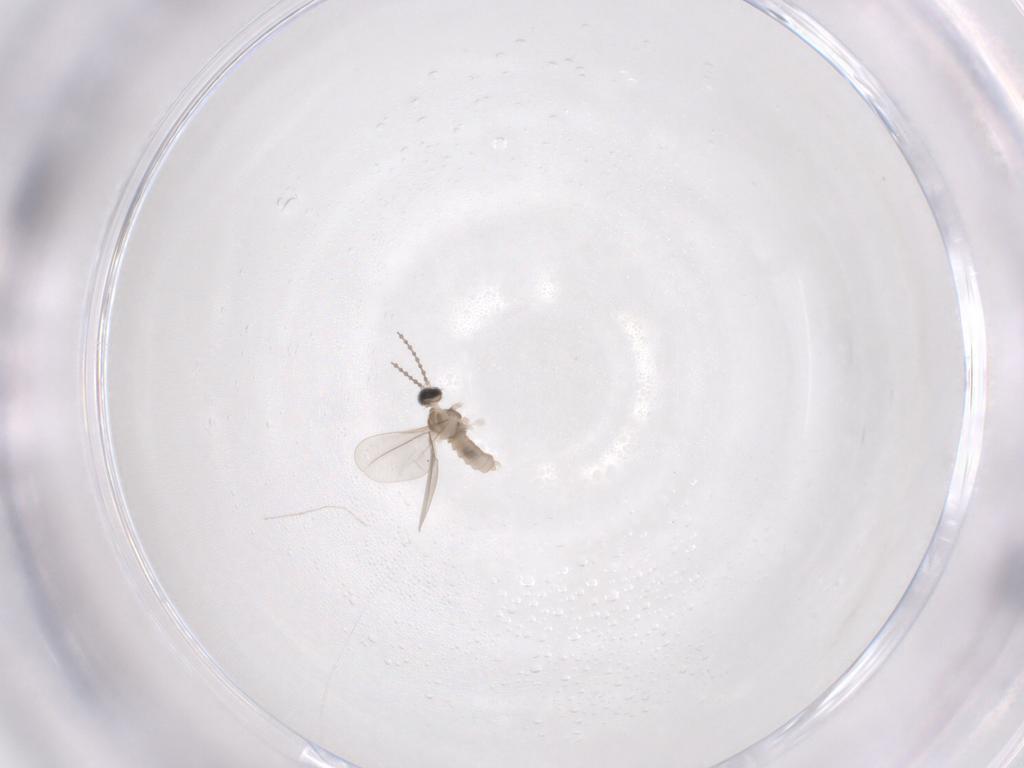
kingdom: Animalia
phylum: Arthropoda
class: Insecta
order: Diptera
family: Cecidomyiidae
